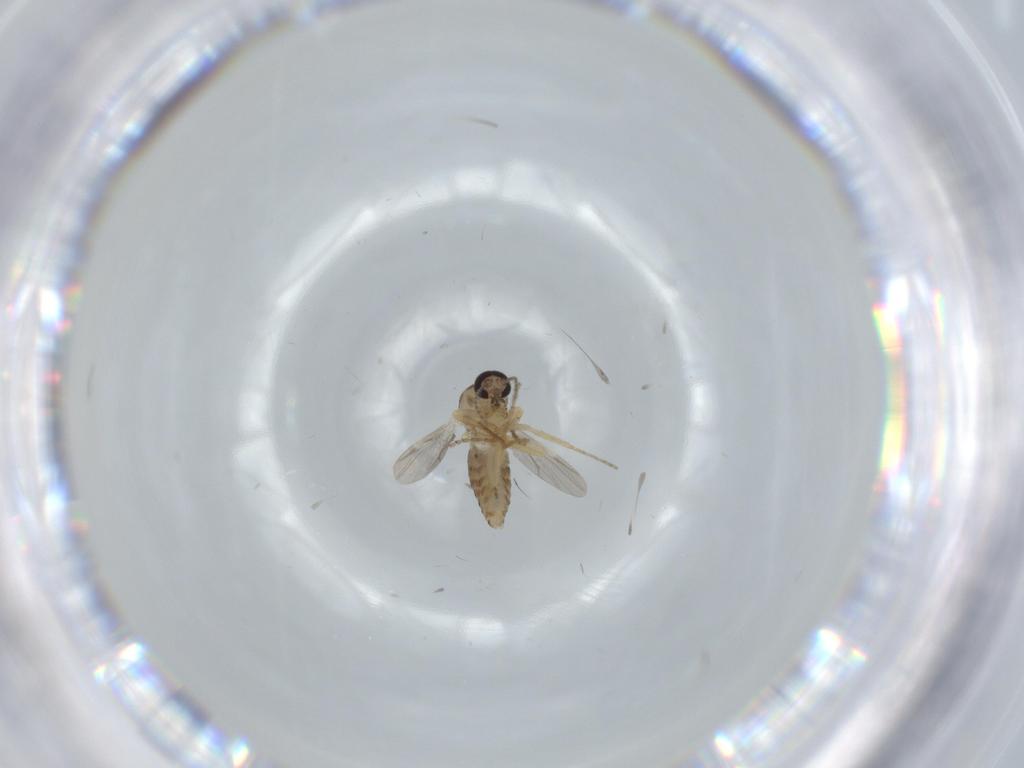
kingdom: Animalia
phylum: Arthropoda
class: Insecta
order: Diptera
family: Ceratopogonidae
